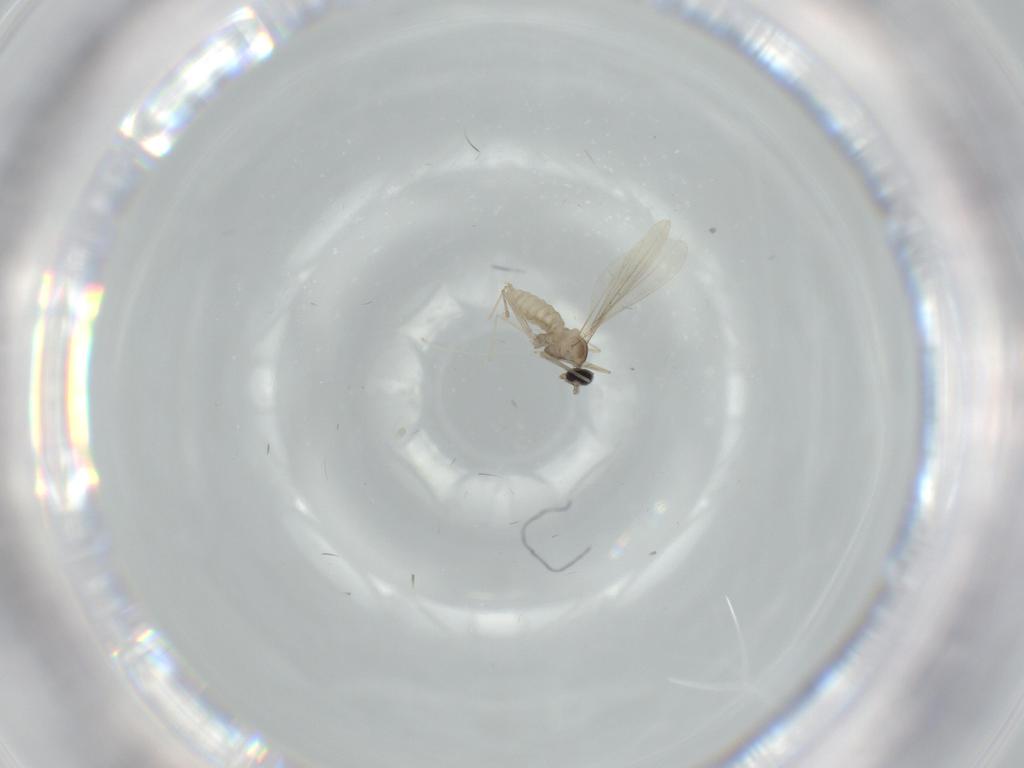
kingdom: Animalia
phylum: Arthropoda
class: Insecta
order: Diptera
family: Cecidomyiidae
